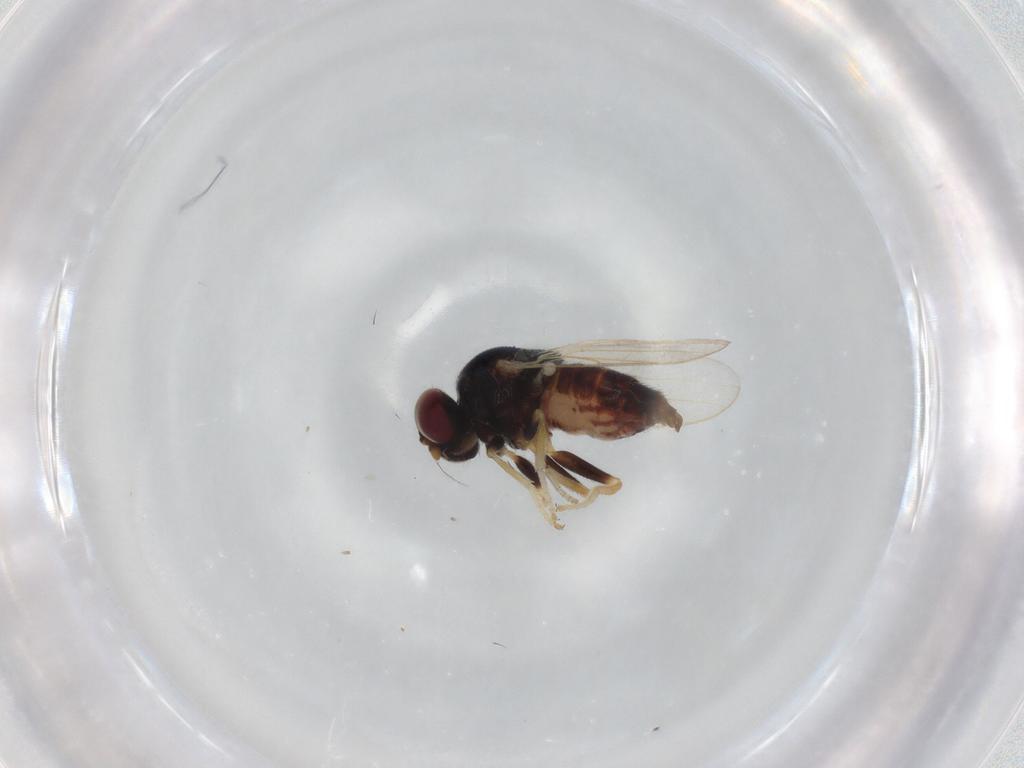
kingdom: Animalia
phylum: Arthropoda
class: Insecta
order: Diptera
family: Chloropidae
